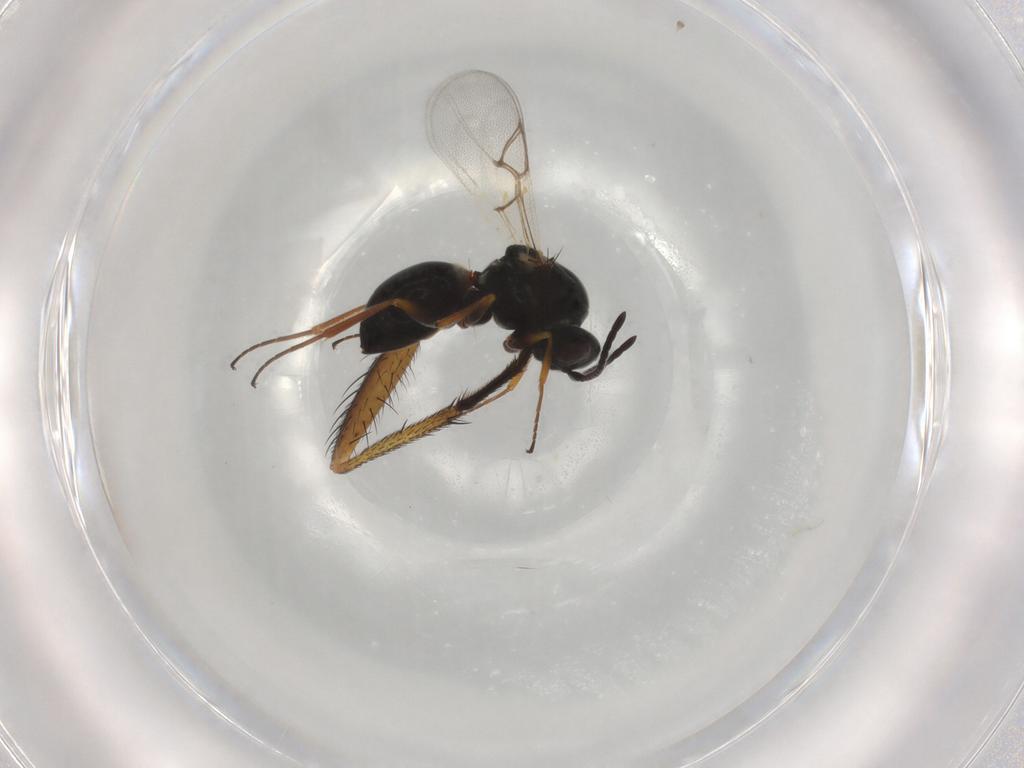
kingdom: Animalia
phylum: Arthropoda
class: Insecta
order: Hymenoptera
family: Figitidae
